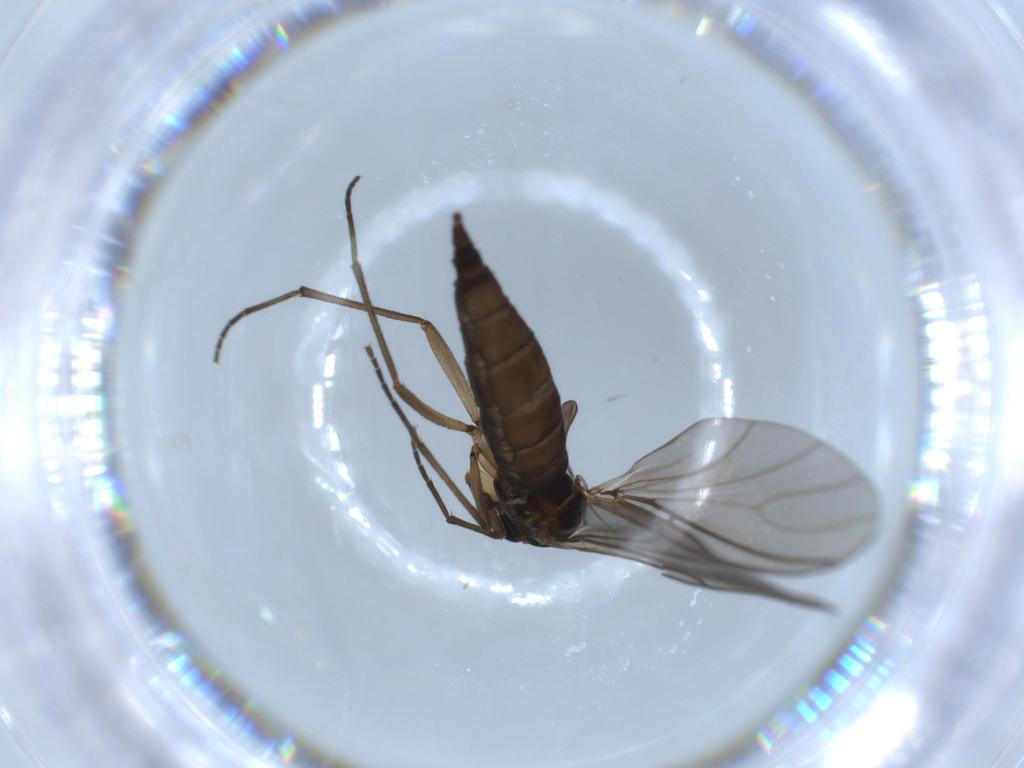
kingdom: Animalia
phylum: Arthropoda
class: Insecta
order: Diptera
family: Sciaridae
